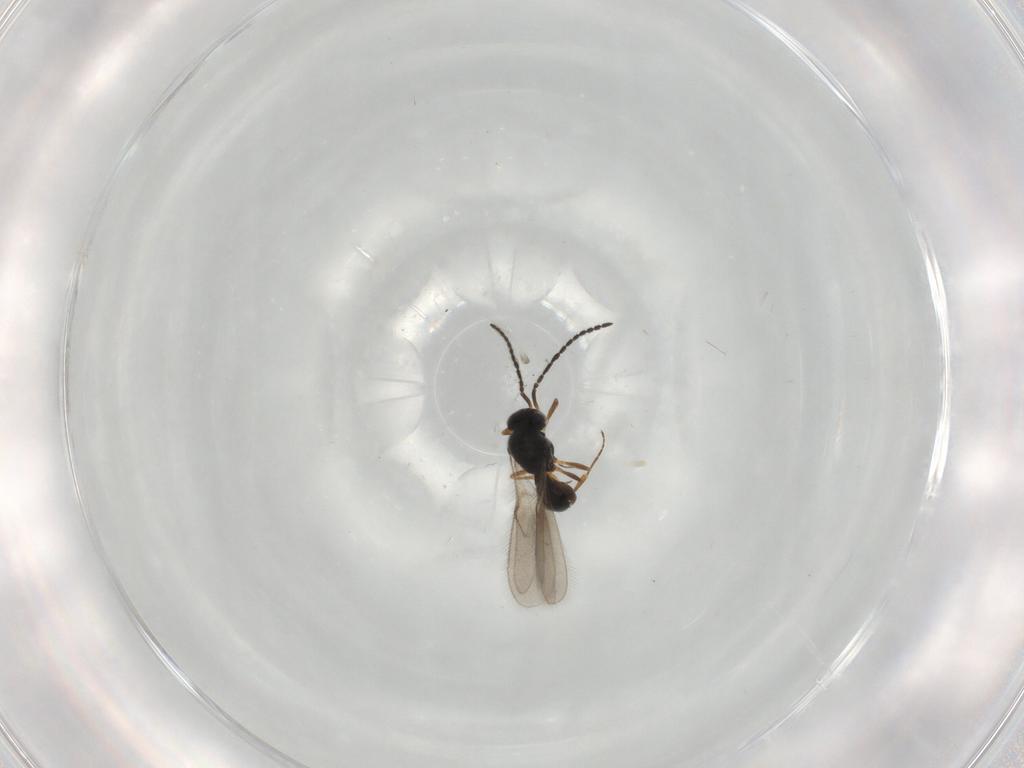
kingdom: Animalia
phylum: Arthropoda
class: Insecta
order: Hymenoptera
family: Scelionidae
